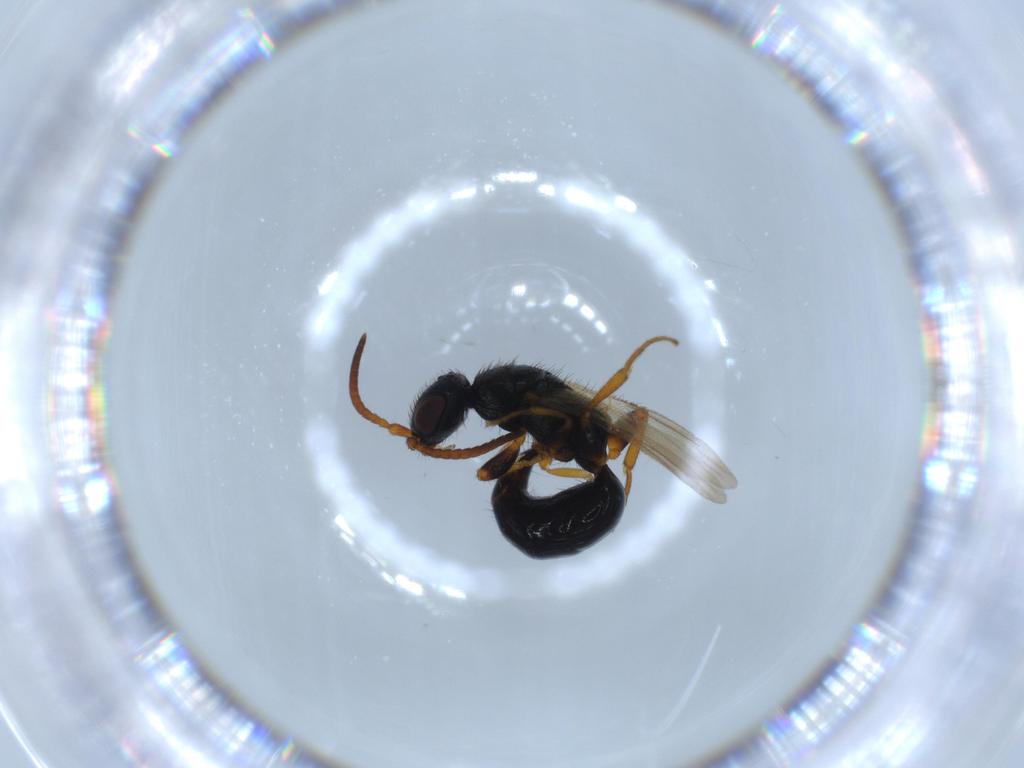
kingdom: Animalia
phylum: Arthropoda
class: Insecta
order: Hymenoptera
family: Bethylidae
